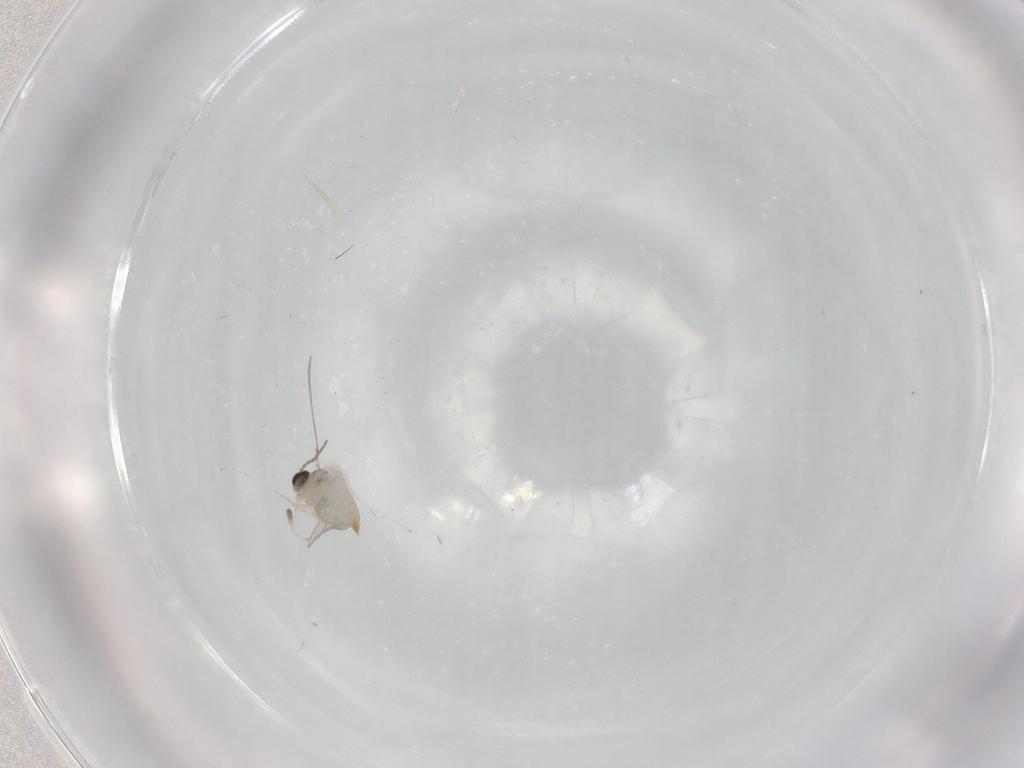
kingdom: Animalia
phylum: Arthropoda
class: Insecta
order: Diptera
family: Cecidomyiidae
